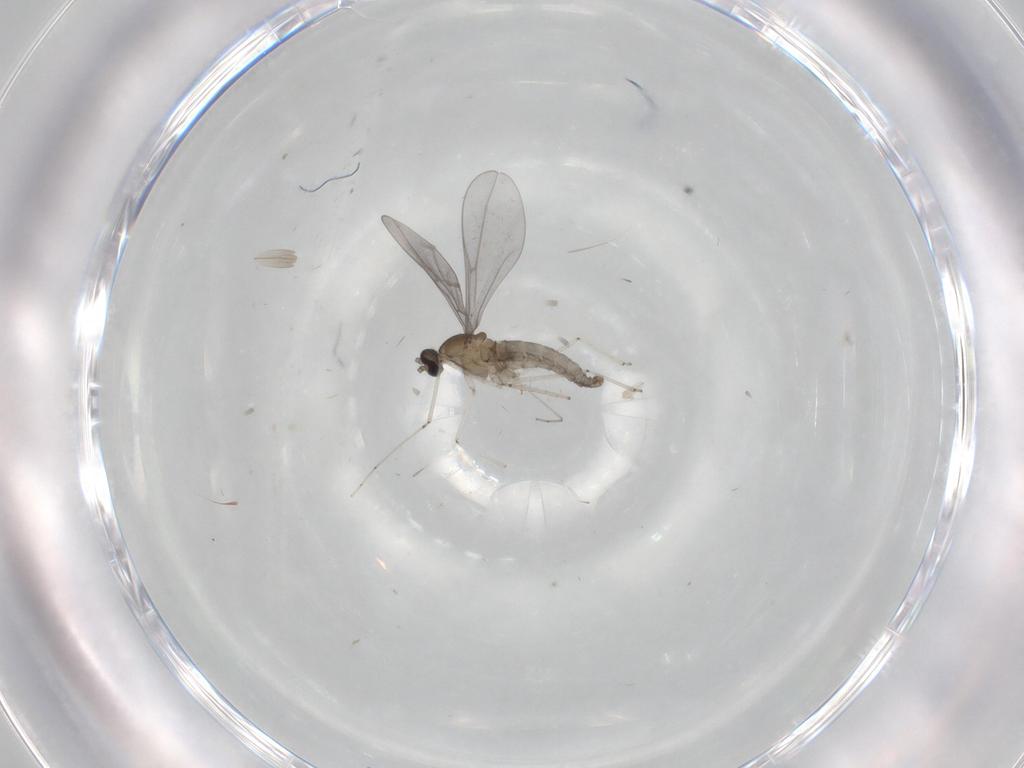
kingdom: Animalia
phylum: Arthropoda
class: Insecta
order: Diptera
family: Cecidomyiidae
